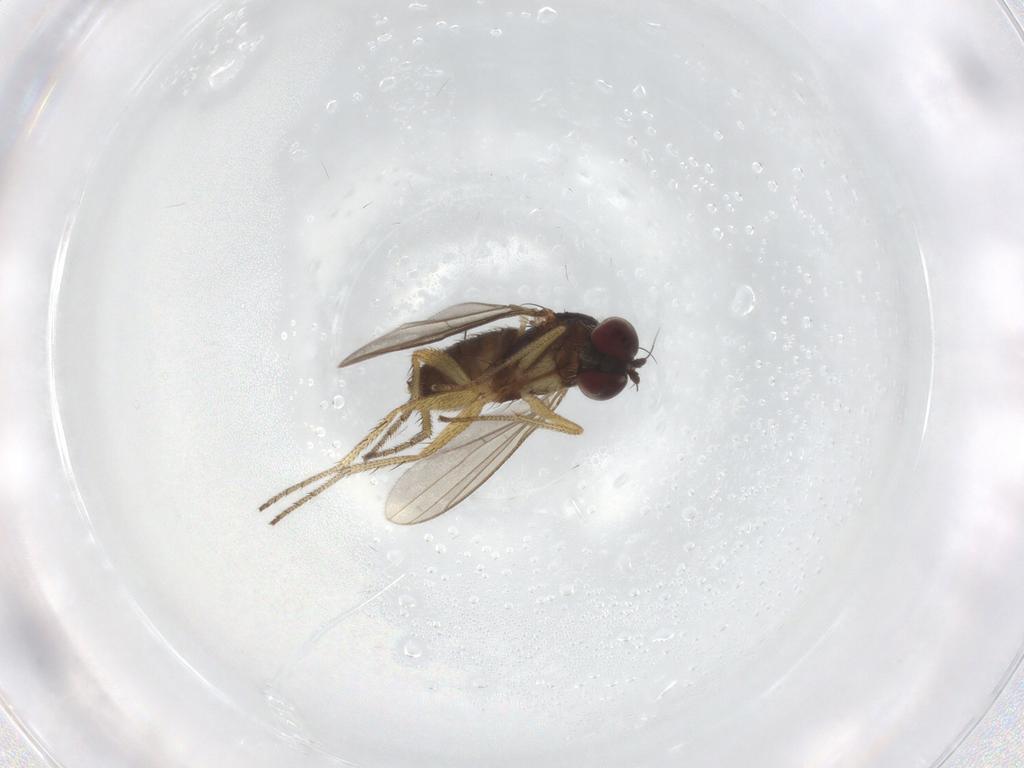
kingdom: Animalia
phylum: Arthropoda
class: Insecta
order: Diptera
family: Dolichopodidae
